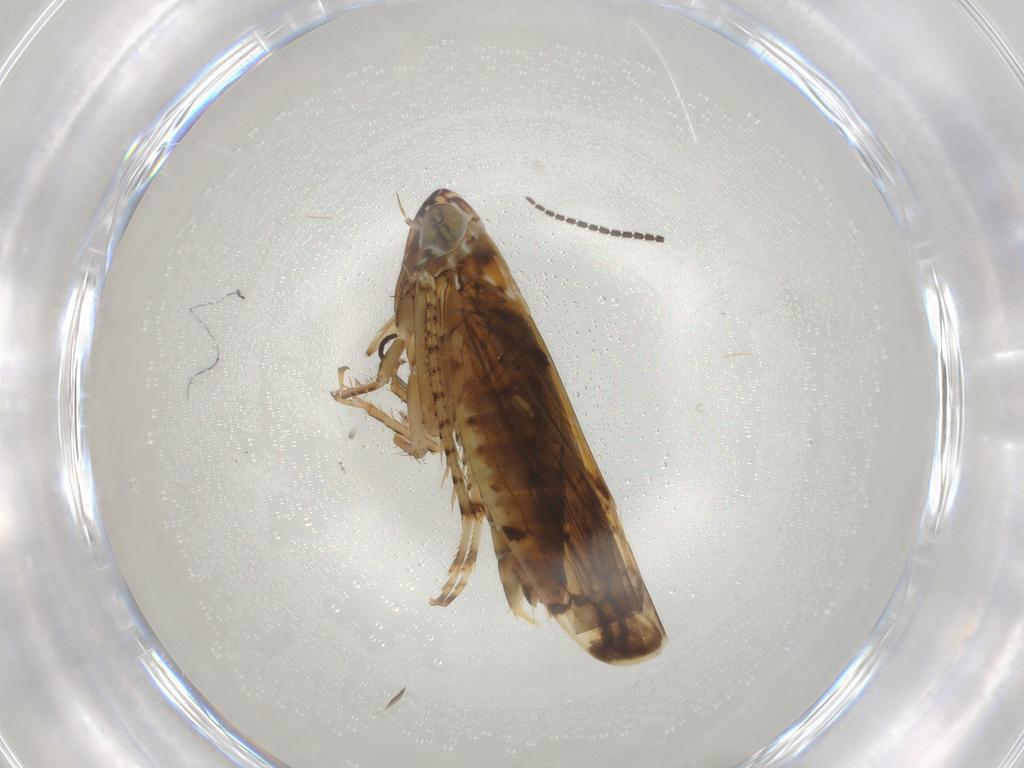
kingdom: Animalia
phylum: Arthropoda
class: Insecta
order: Hemiptera
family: Cicadellidae
